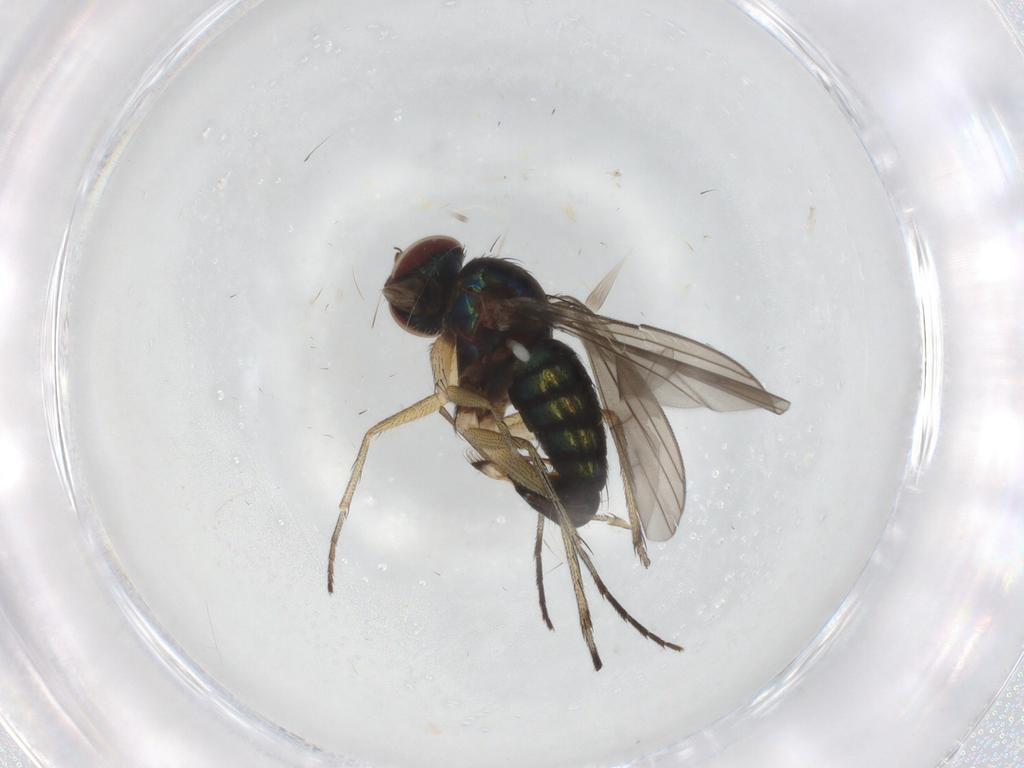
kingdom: Animalia
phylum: Arthropoda
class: Insecta
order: Diptera
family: Dolichopodidae
